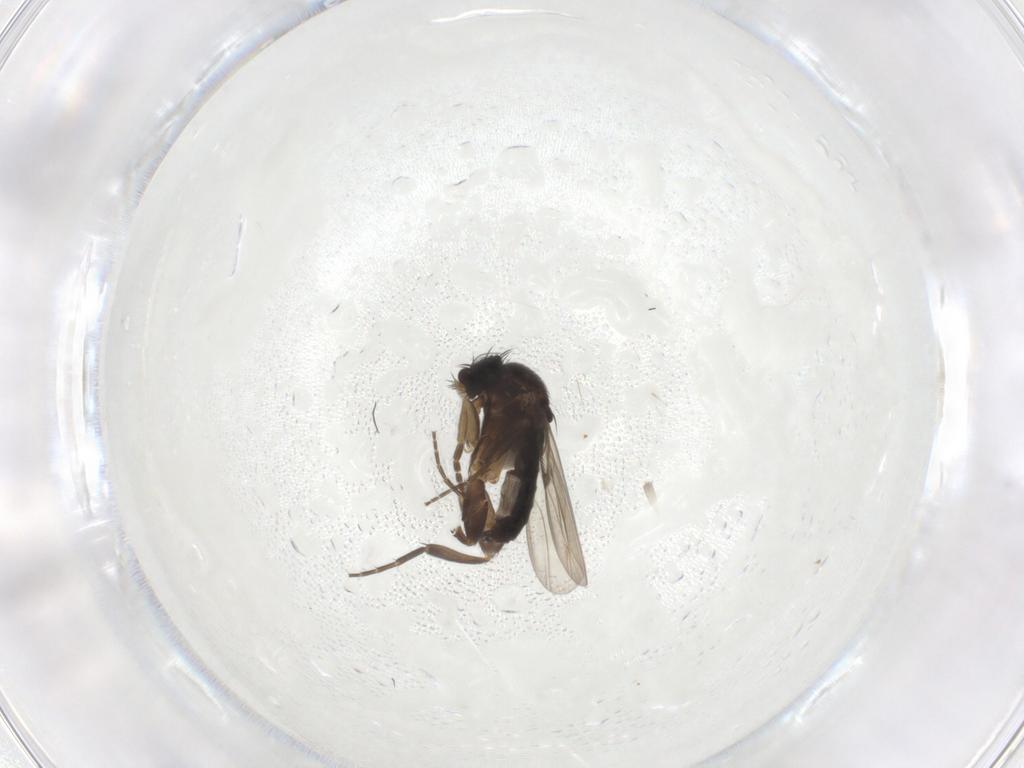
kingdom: Animalia
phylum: Arthropoda
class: Insecta
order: Diptera
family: Phoridae
